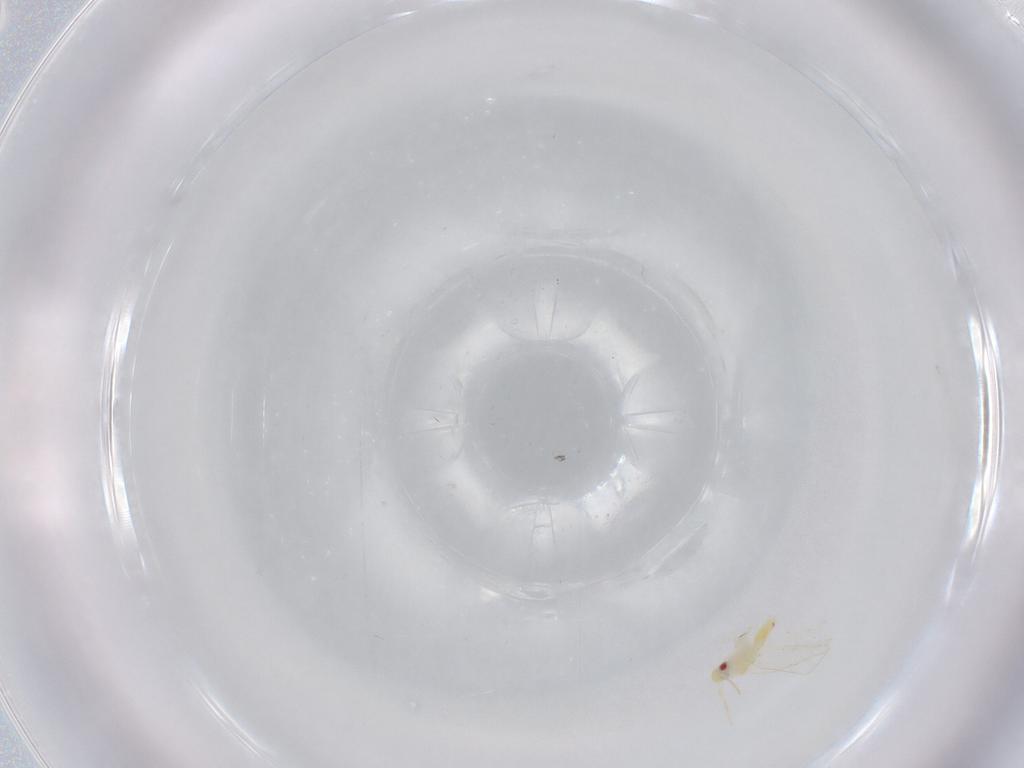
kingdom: Animalia
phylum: Arthropoda
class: Insecta
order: Hemiptera
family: Aleyrodidae
